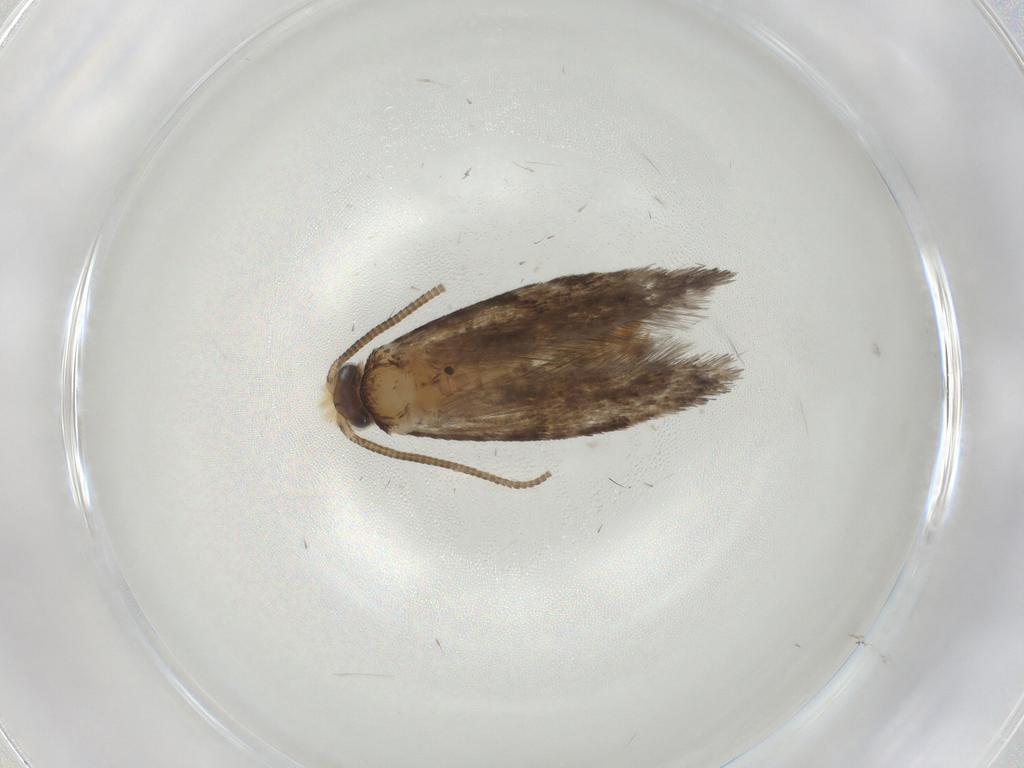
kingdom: Animalia
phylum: Arthropoda
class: Insecta
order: Lepidoptera
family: Tineidae
